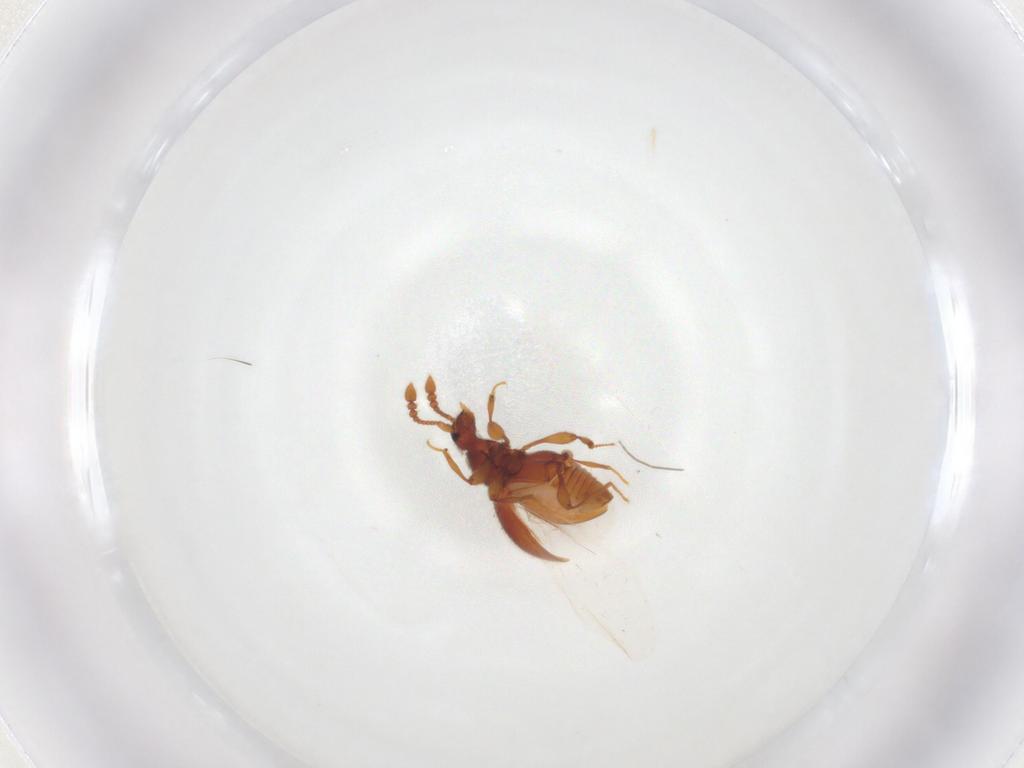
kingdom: Animalia
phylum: Arthropoda
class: Insecta
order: Coleoptera
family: Staphylinidae
